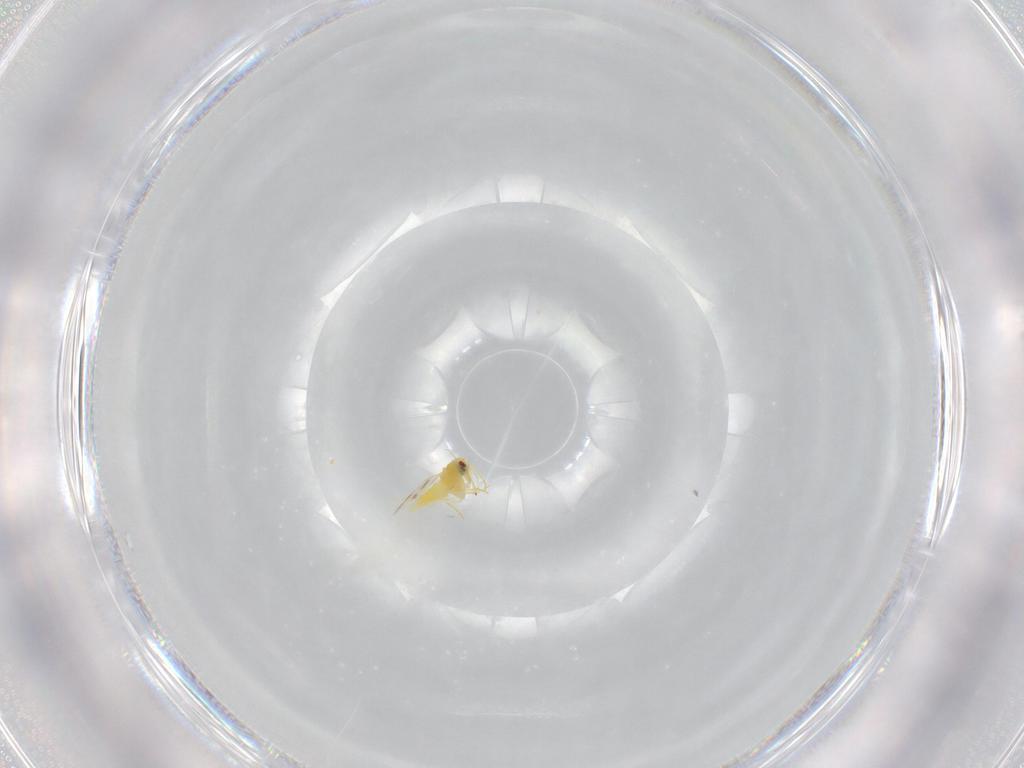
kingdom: Animalia
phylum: Arthropoda
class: Insecta
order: Hemiptera
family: Aleyrodidae
